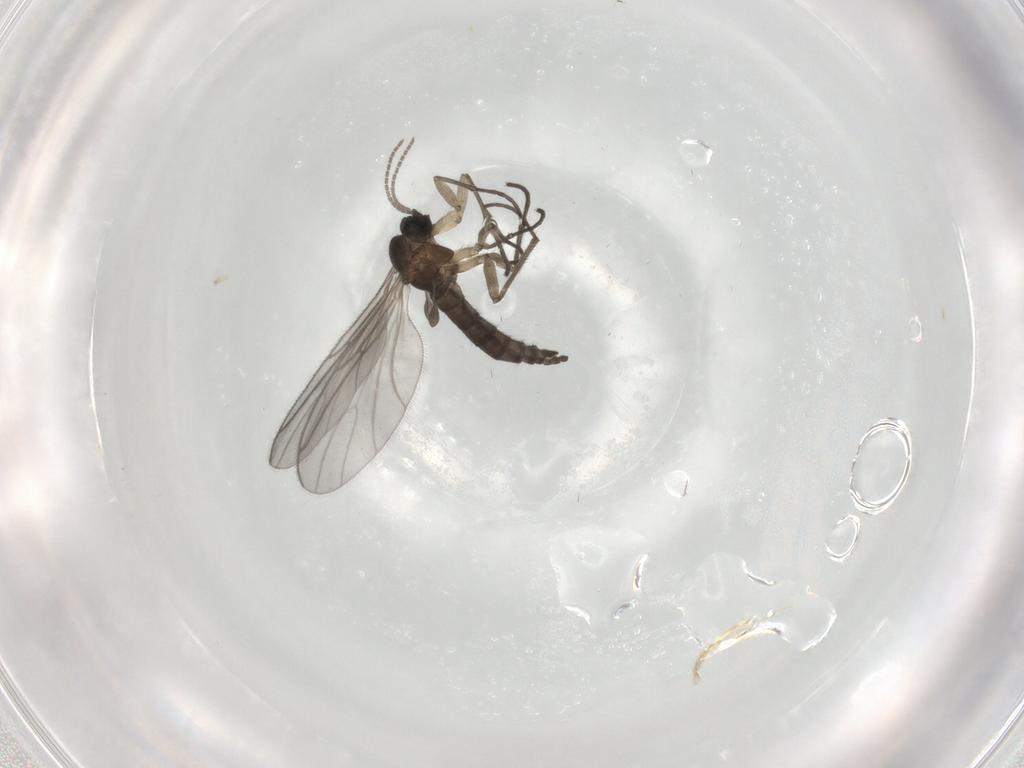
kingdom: Animalia
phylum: Arthropoda
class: Insecta
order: Diptera
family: Sciaridae
